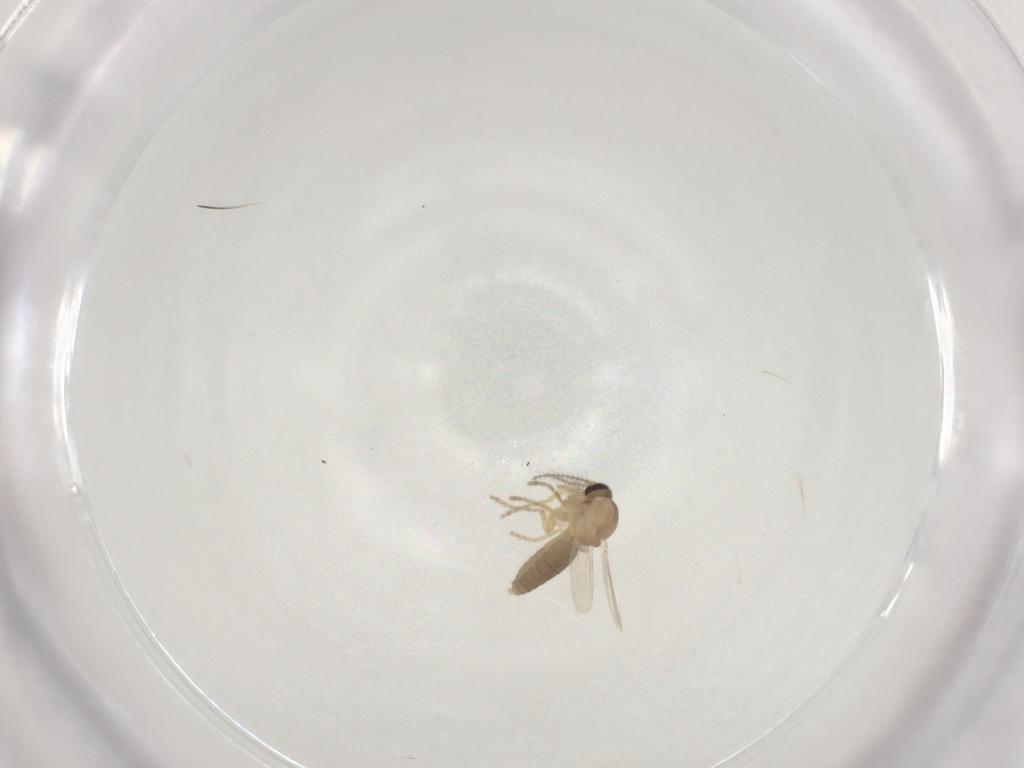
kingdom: Animalia
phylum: Arthropoda
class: Insecta
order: Diptera
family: Ceratopogonidae
